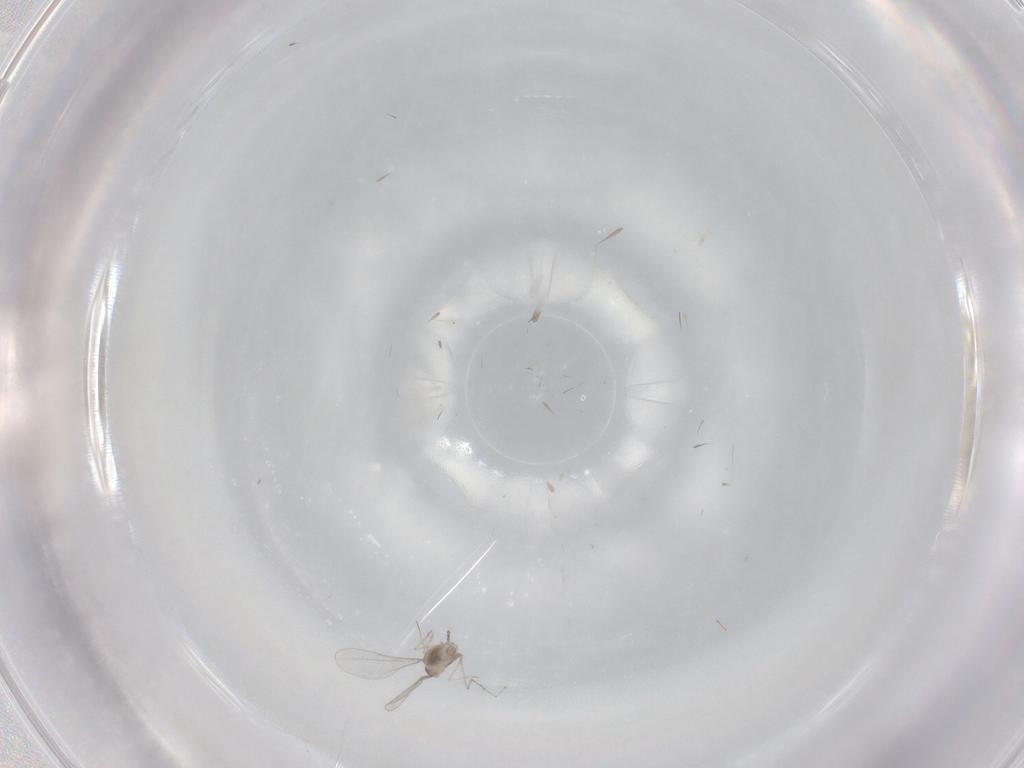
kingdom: Animalia
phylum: Arthropoda
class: Insecta
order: Diptera
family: Cecidomyiidae
